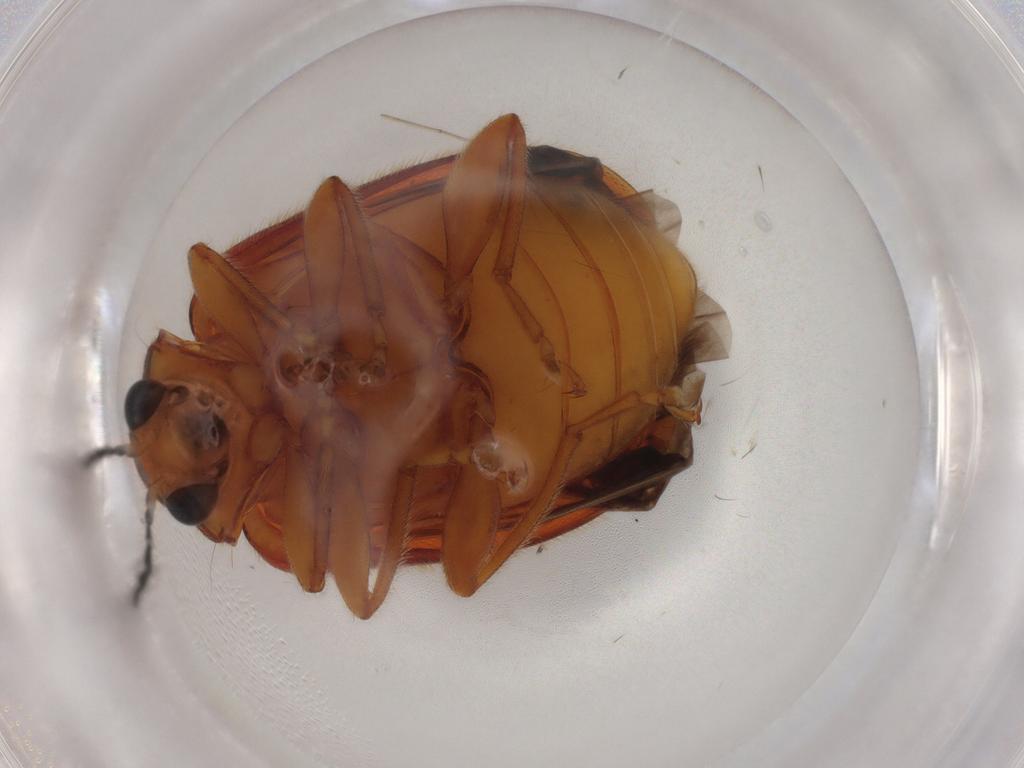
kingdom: Animalia
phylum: Arthropoda
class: Insecta
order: Coleoptera
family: Chrysomelidae
